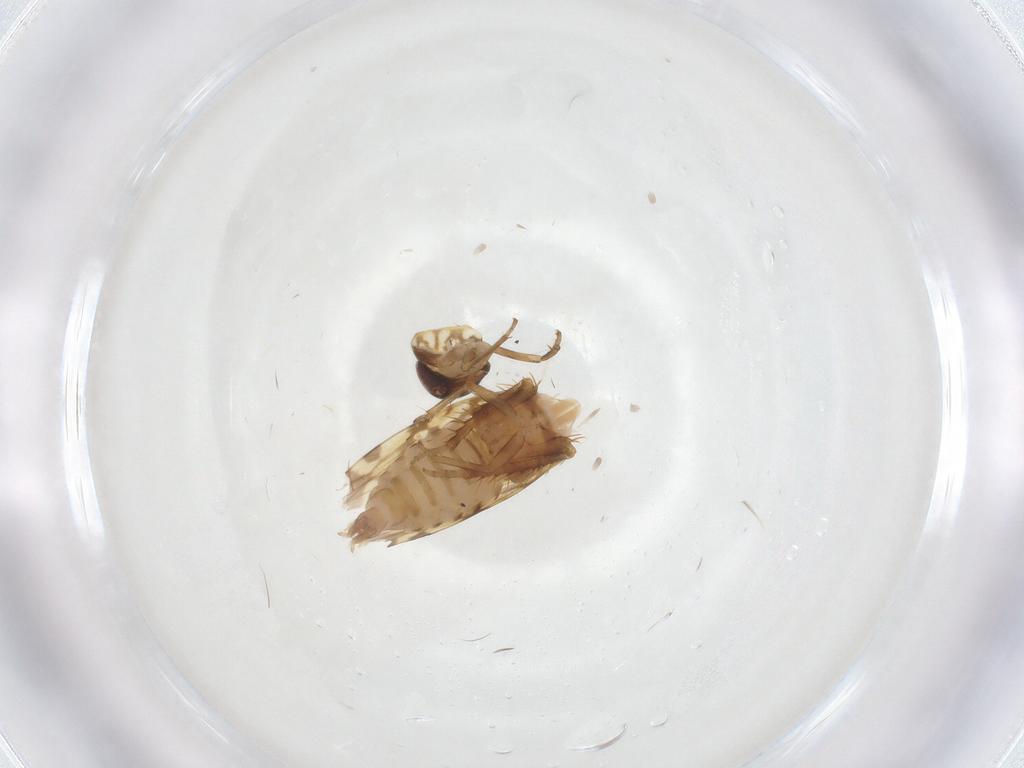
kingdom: Animalia
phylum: Arthropoda
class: Insecta
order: Hemiptera
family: Cicadellidae
